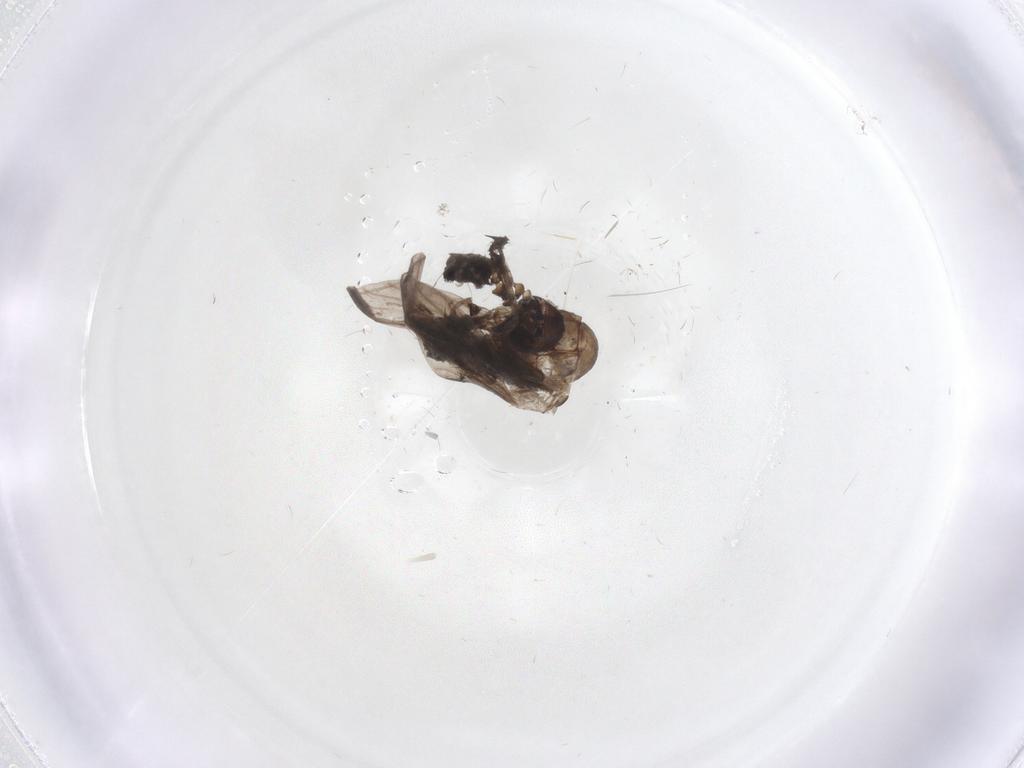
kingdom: Animalia
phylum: Arthropoda
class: Insecta
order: Diptera
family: Psychodidae
